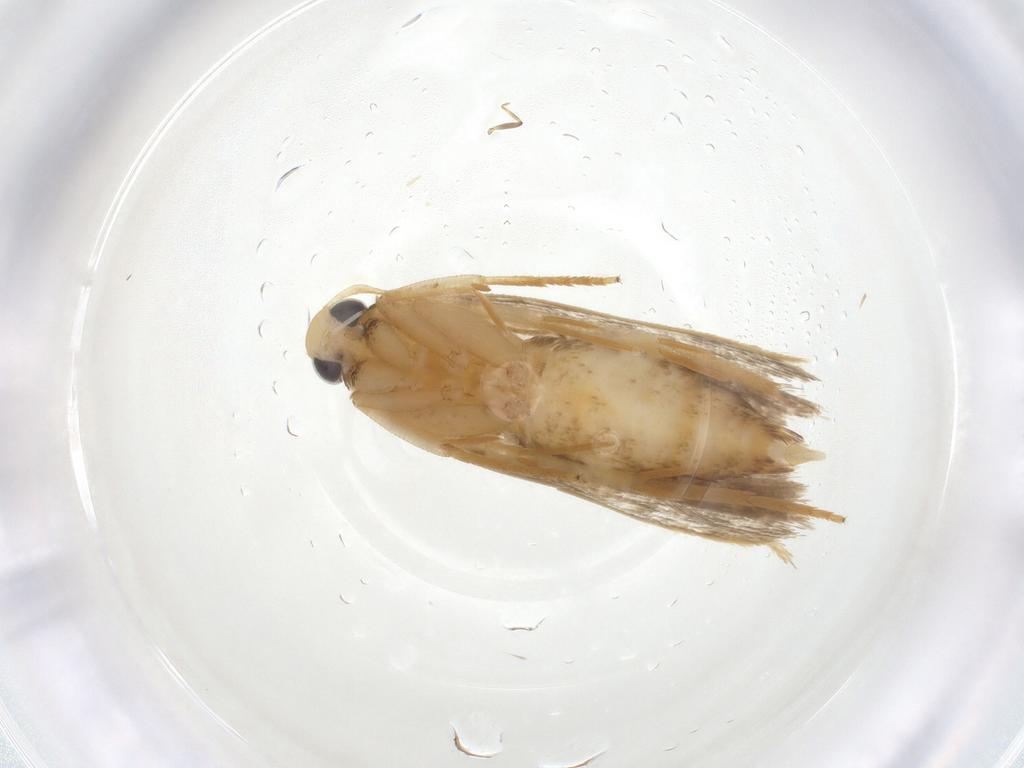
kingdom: Animalia
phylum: Arthropoda
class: Insecta
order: Lepidoptera
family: Gelechiidae
